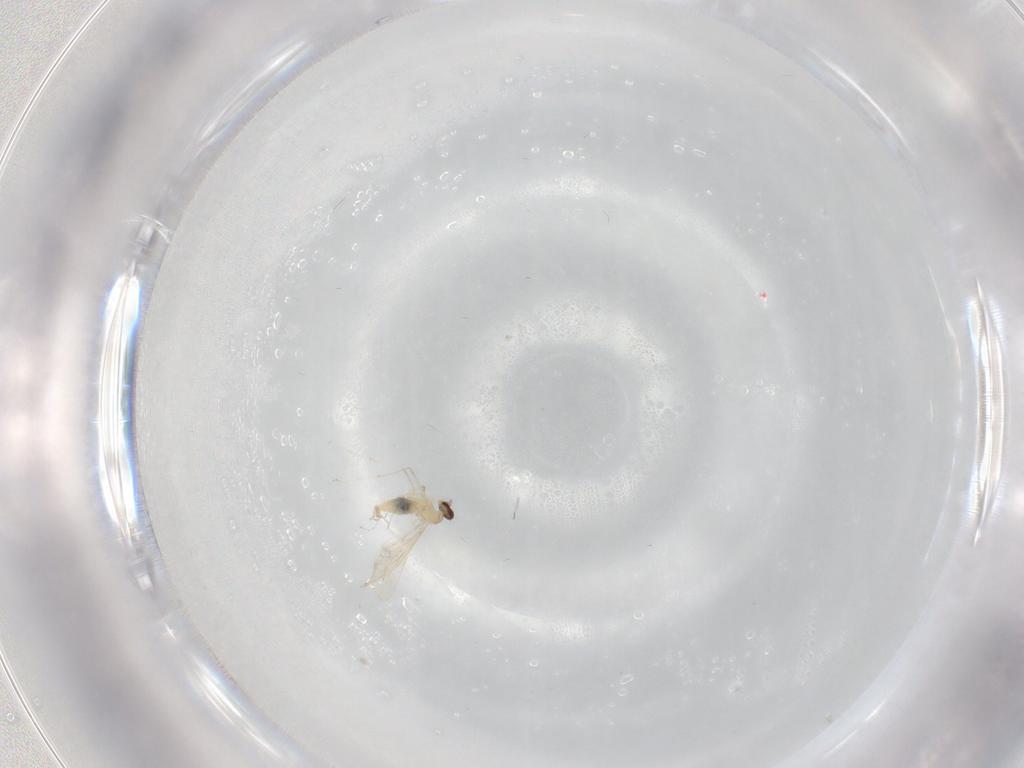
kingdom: Animalia
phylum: Arthropoda
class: Insecta
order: Diptera
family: Cecidomyiidae
